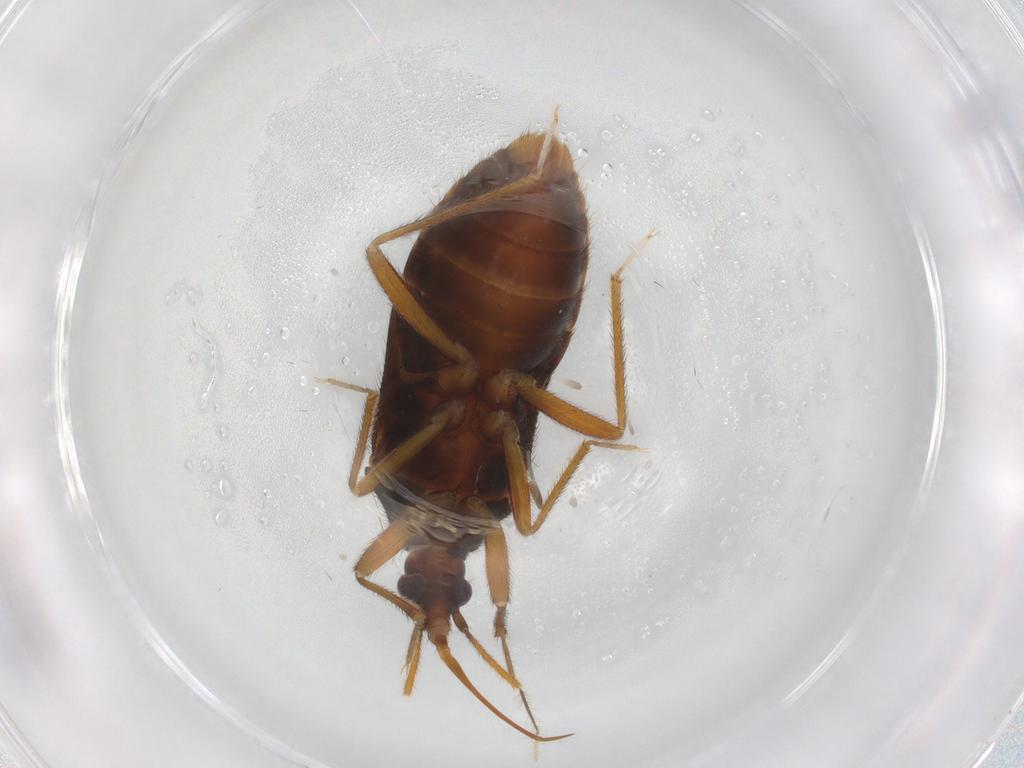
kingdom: Animalia
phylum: Arthropoda
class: Insecta
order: Hemiptera
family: Anthocoridae
